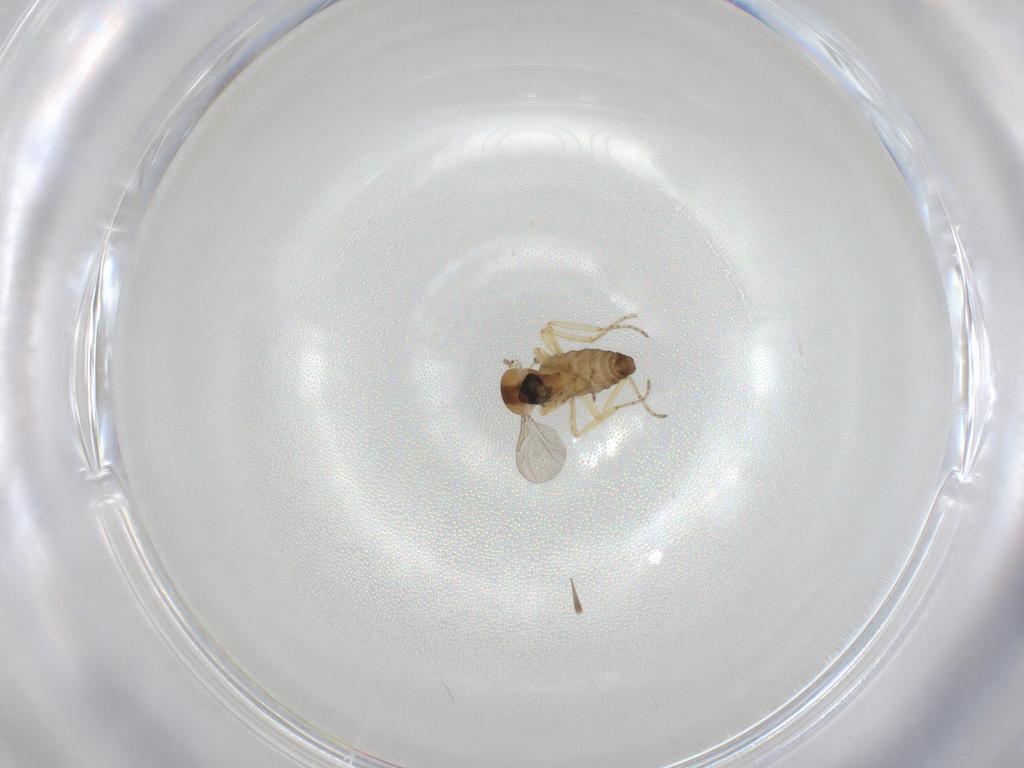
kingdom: Animalia
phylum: Arthropoda
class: Insecta
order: Diptera
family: Ceratopogonidae
